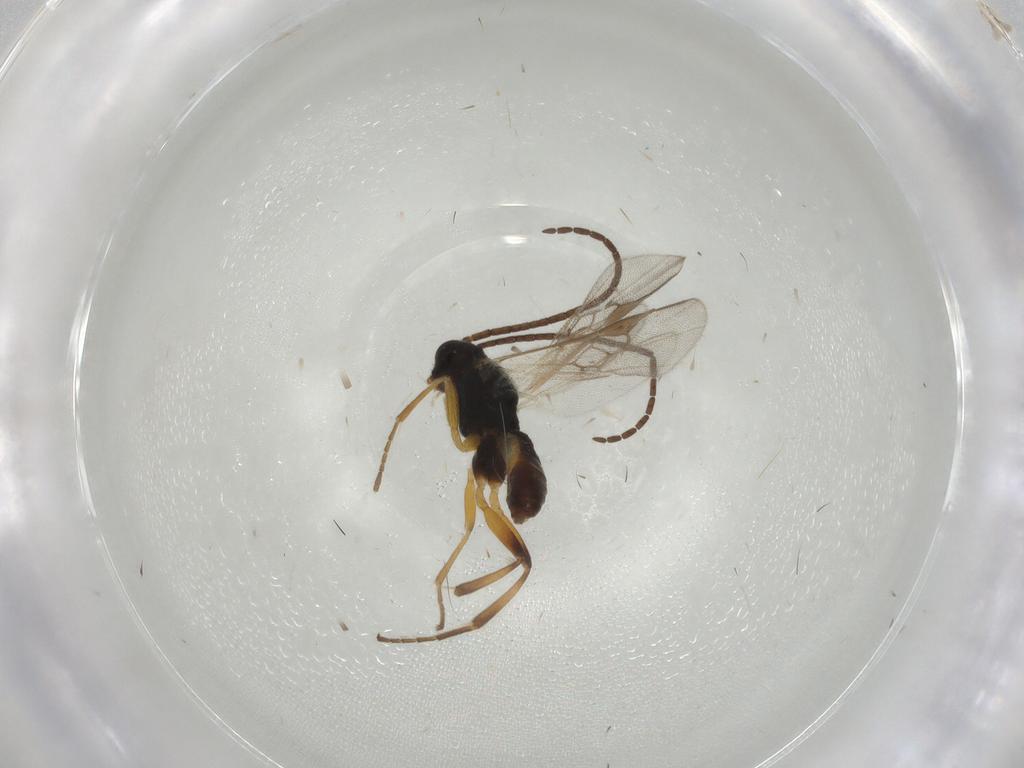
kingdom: Animalia
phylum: Arthropoda
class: Insecta
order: Hymenoptera
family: Braconidae
